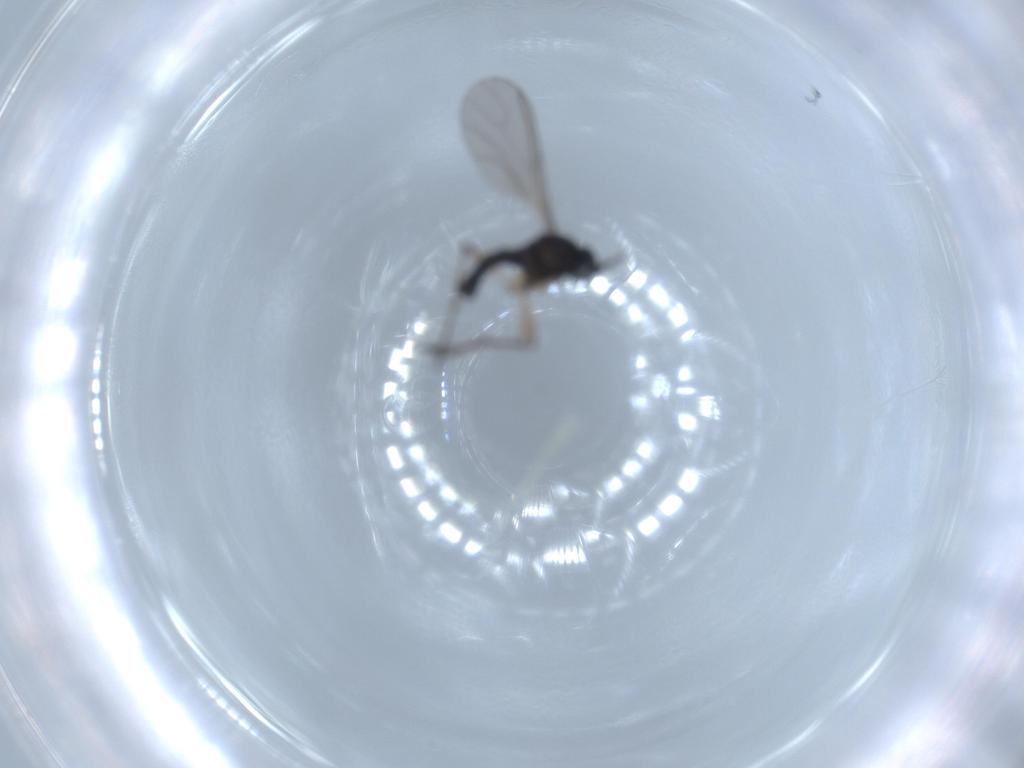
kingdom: Animalia
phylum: Arthropoda
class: Insecta
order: Diptera
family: Sciaridae
